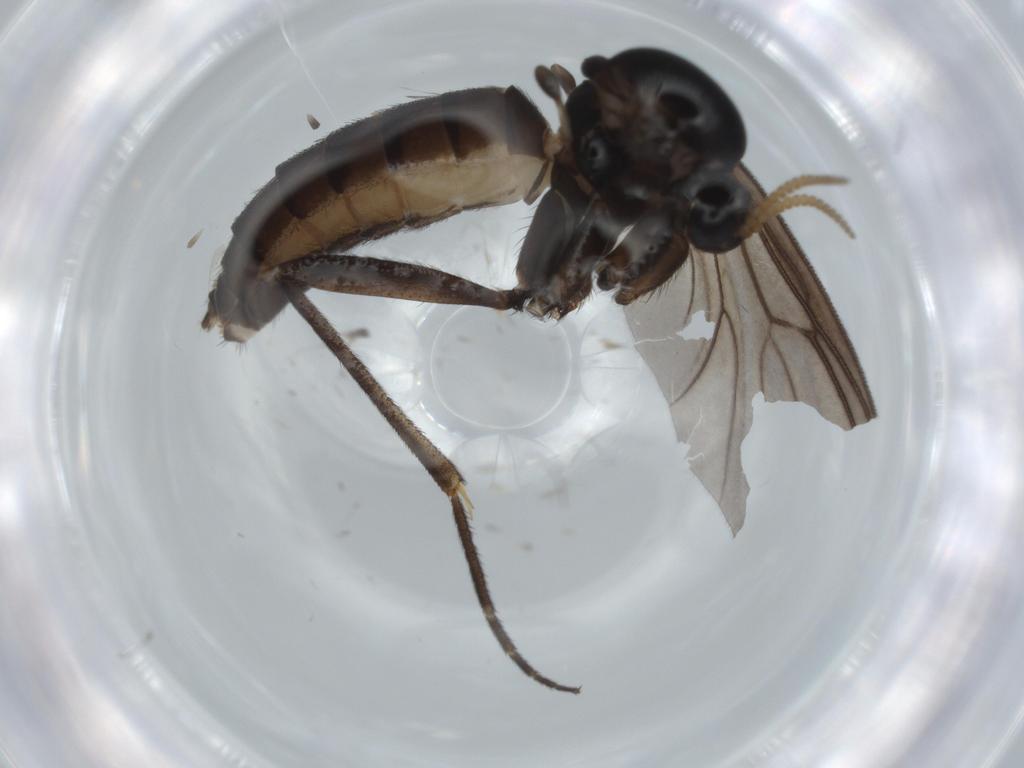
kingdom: Animalia
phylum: Arthropoda
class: Insecta
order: Diptera
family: Mycetophilidae
